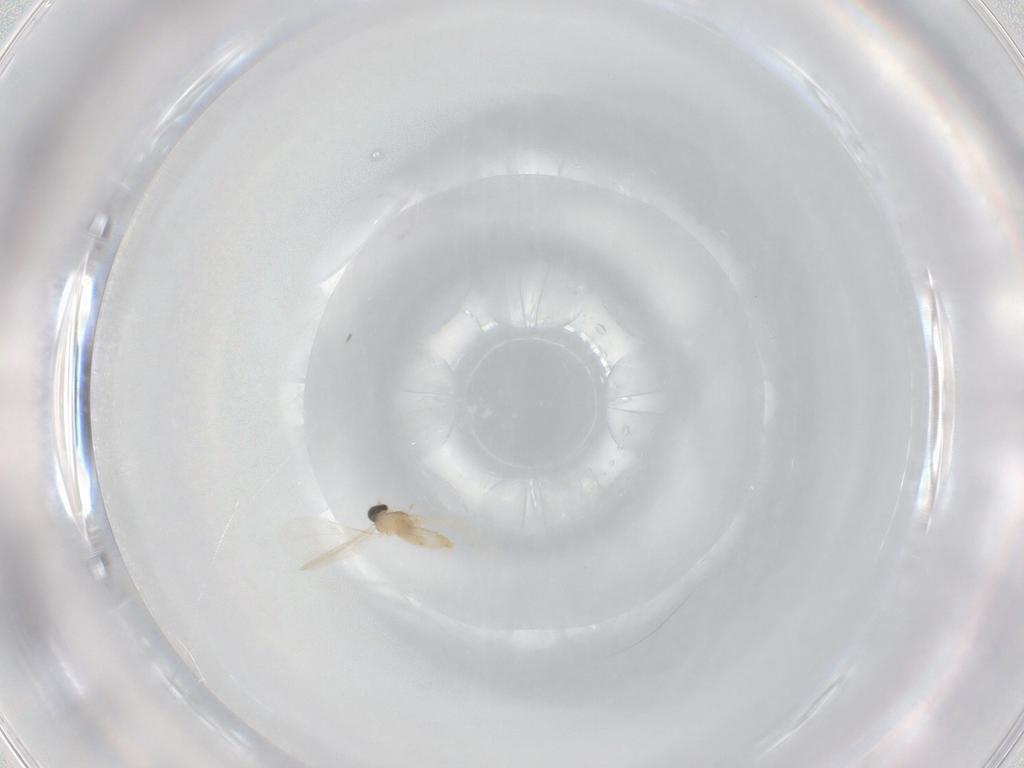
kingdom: Animalia
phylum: Arthropoda
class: Insecta
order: Diptera
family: Cecidomyiidae
